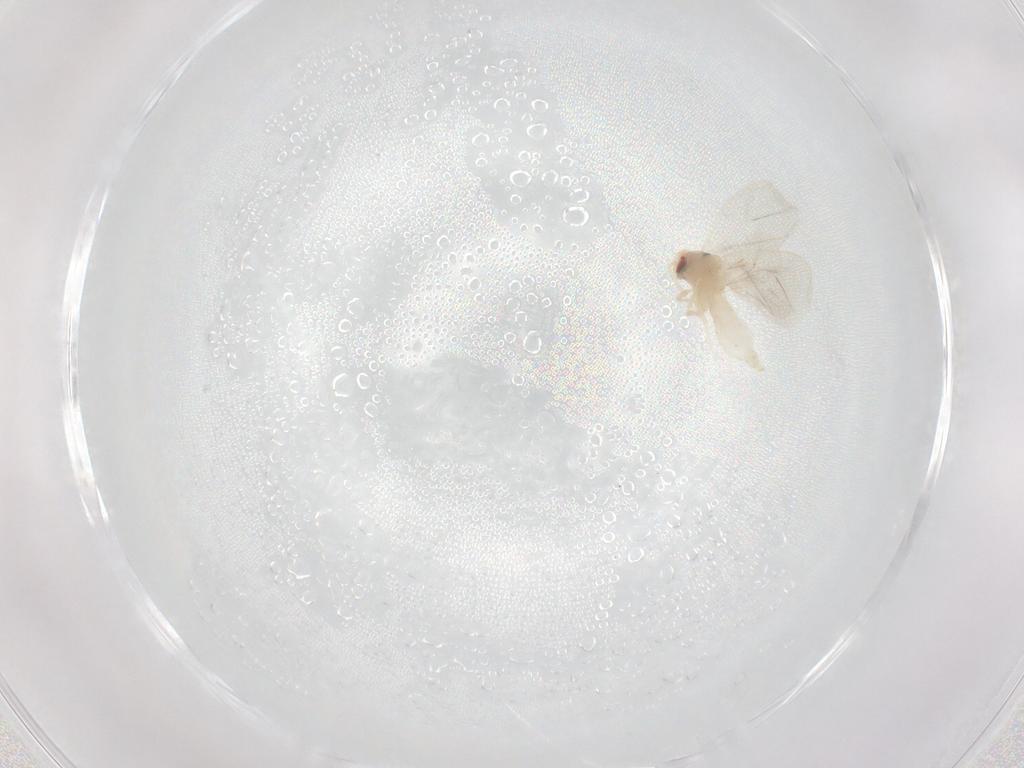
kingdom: Animalia
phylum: Arthropoda
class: Insecta
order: Hemiptera
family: Aleyrodidae
